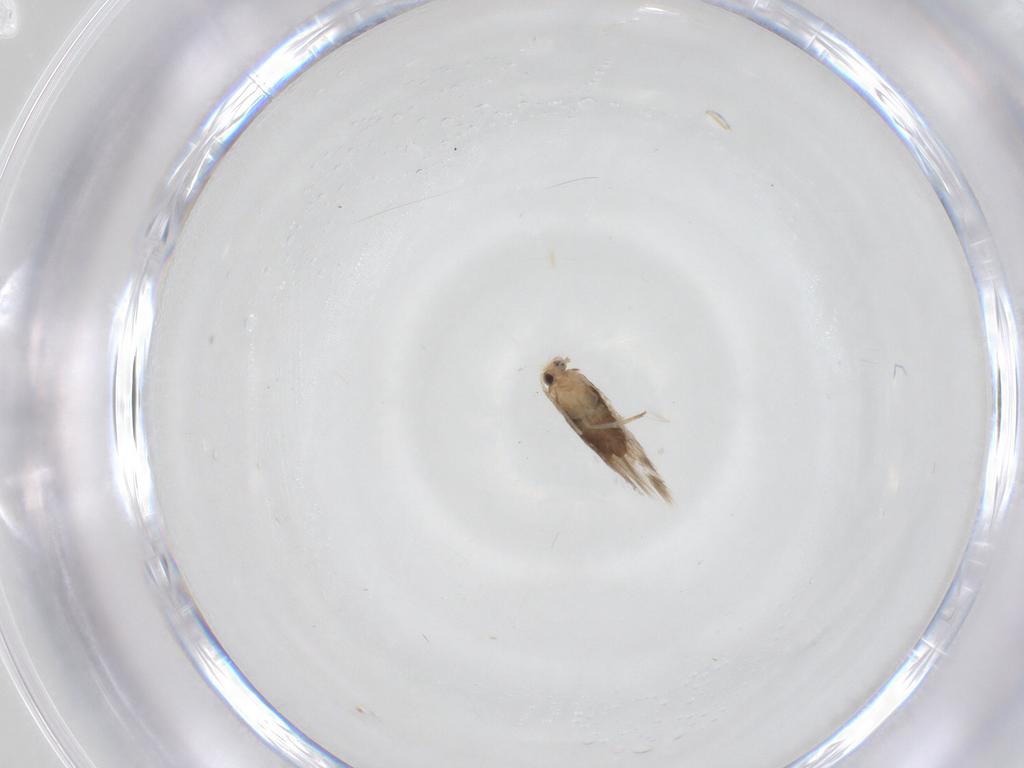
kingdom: Animalia
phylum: Arthropoda
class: Insecta
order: Lepidoptera
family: Nepticulidae
